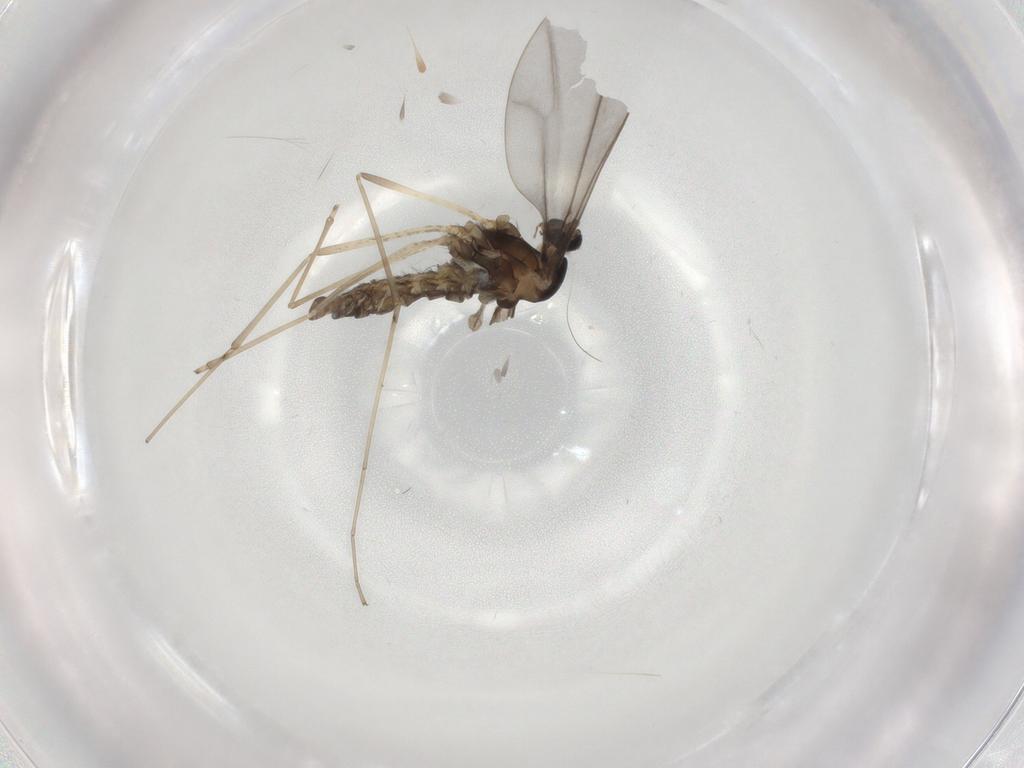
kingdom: Animalia
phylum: Arthropoda
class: Insecta
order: Diptera
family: Cecidomyiidae
